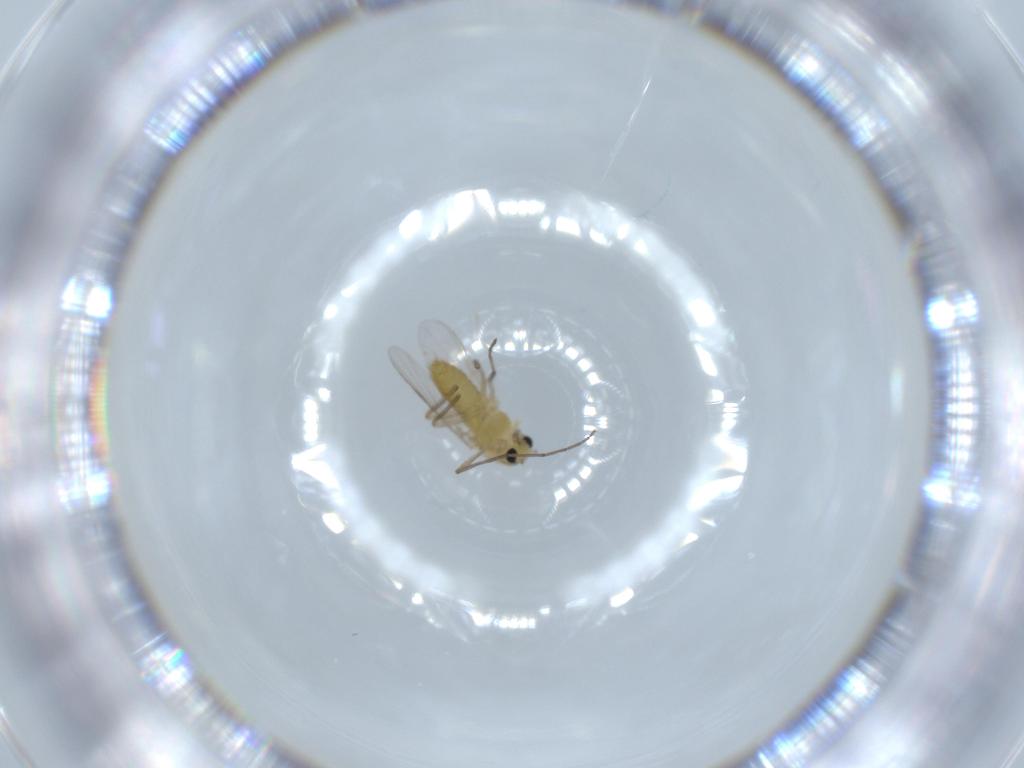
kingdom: Animalia
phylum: Arthropoda
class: Insecta
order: Diptera
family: Chironomidae
